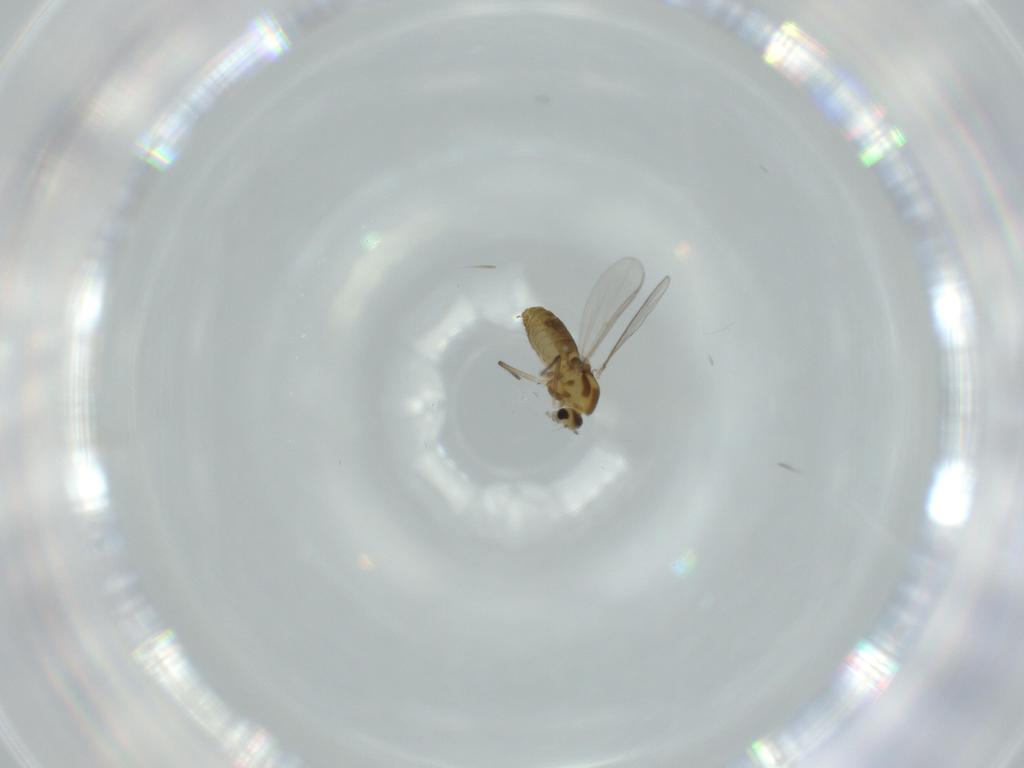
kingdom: Animalia
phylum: Arthropoda
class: Insecta
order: Diptera
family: Chironomidae
